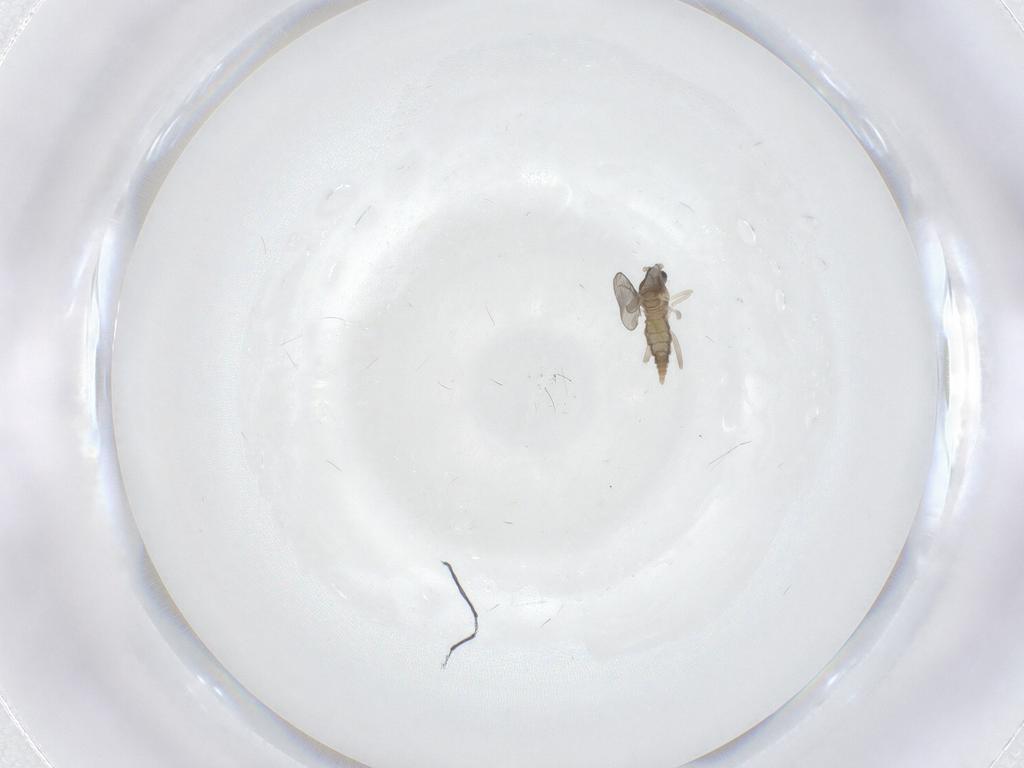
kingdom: Animalia
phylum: Arthropoda
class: Insecta
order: Diptera
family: Cecidomyiidae
